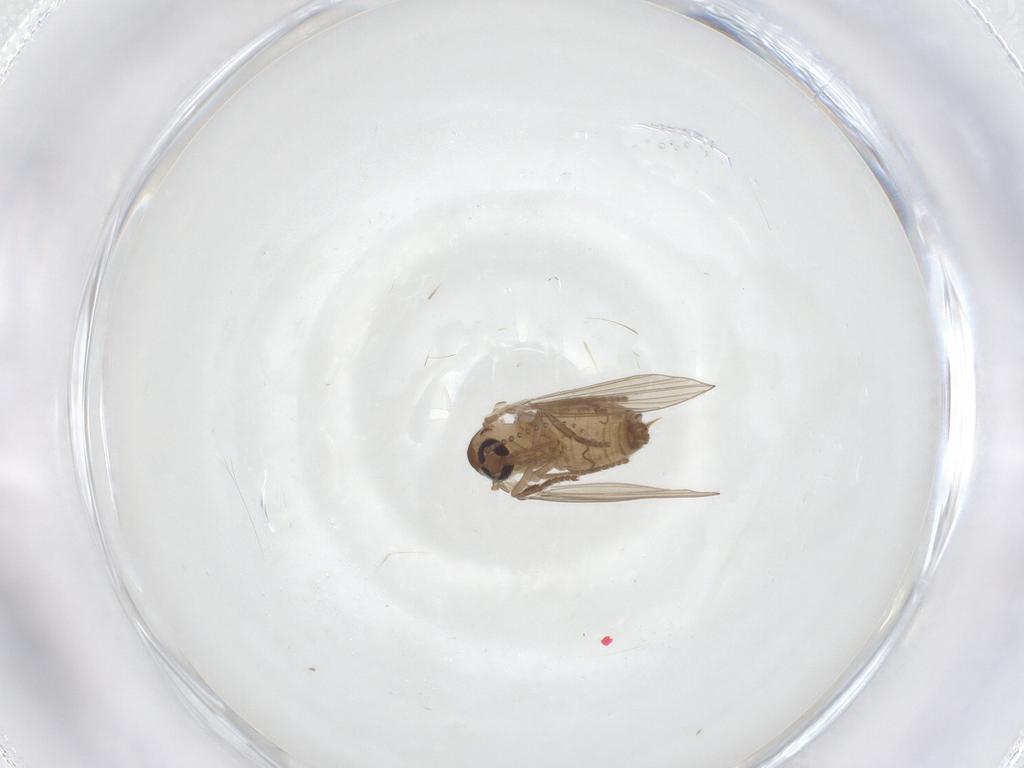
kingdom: Animalia
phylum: Arthropoda
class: Insecta
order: Diptera
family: Psychodidae
